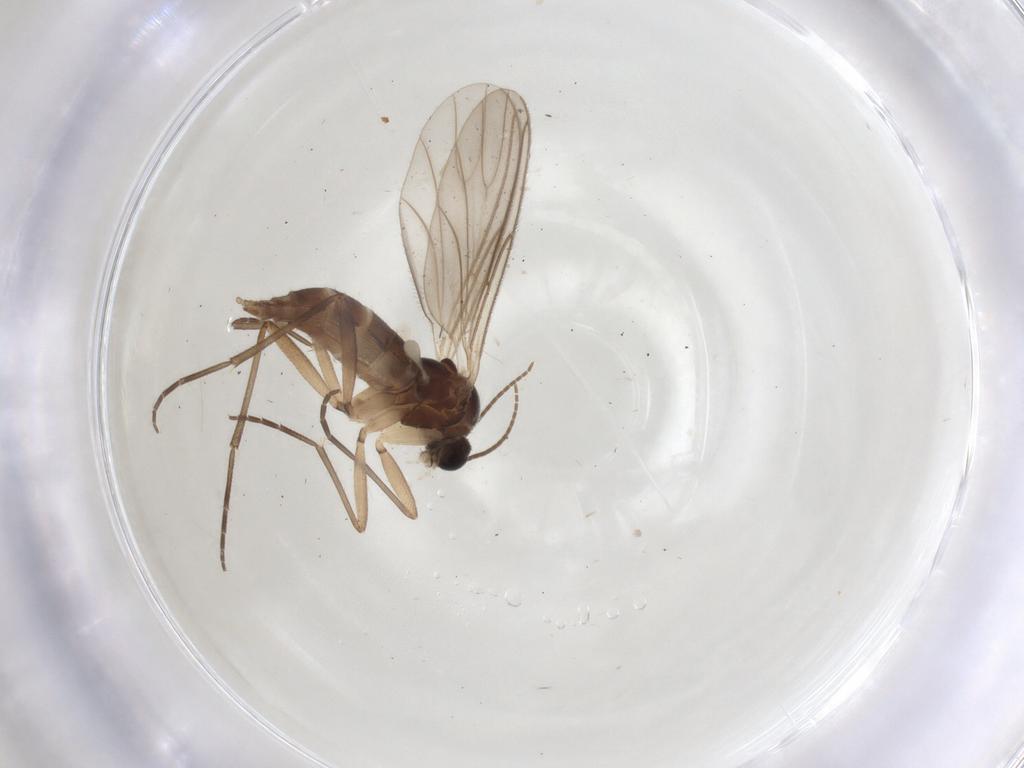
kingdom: Animalia
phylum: Arthropoda
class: Insecta
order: Diptera
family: Sciaridae
